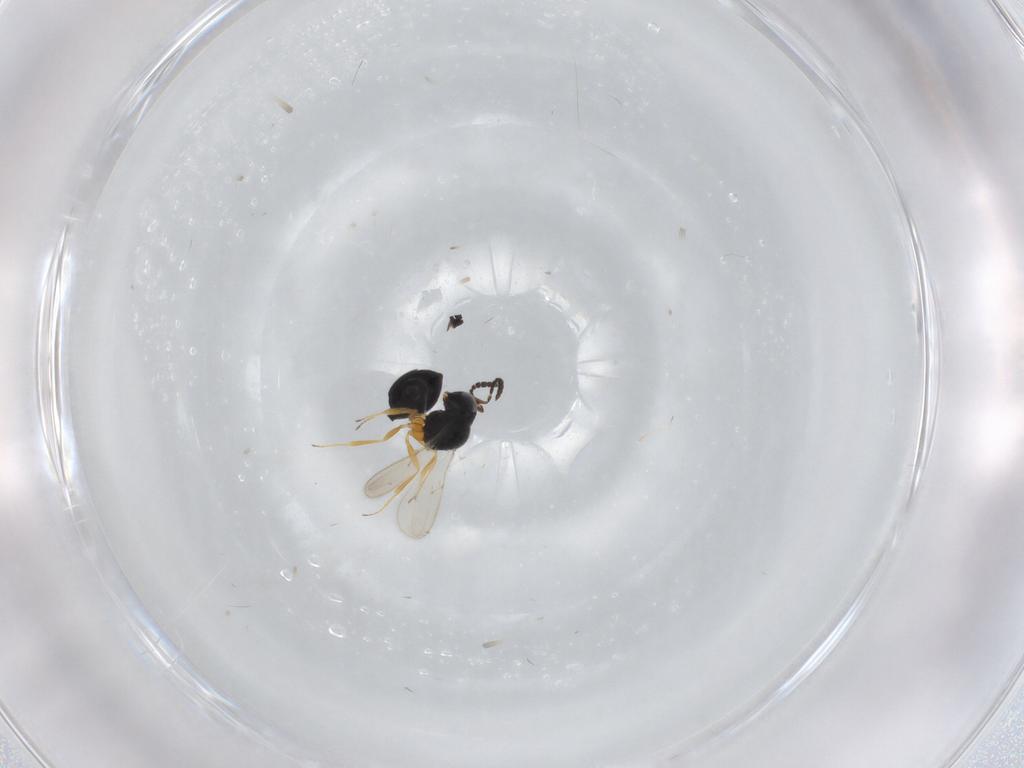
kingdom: Animalia
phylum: Arthropoda
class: Insecta
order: Hymenoptera
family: Scelionidae
